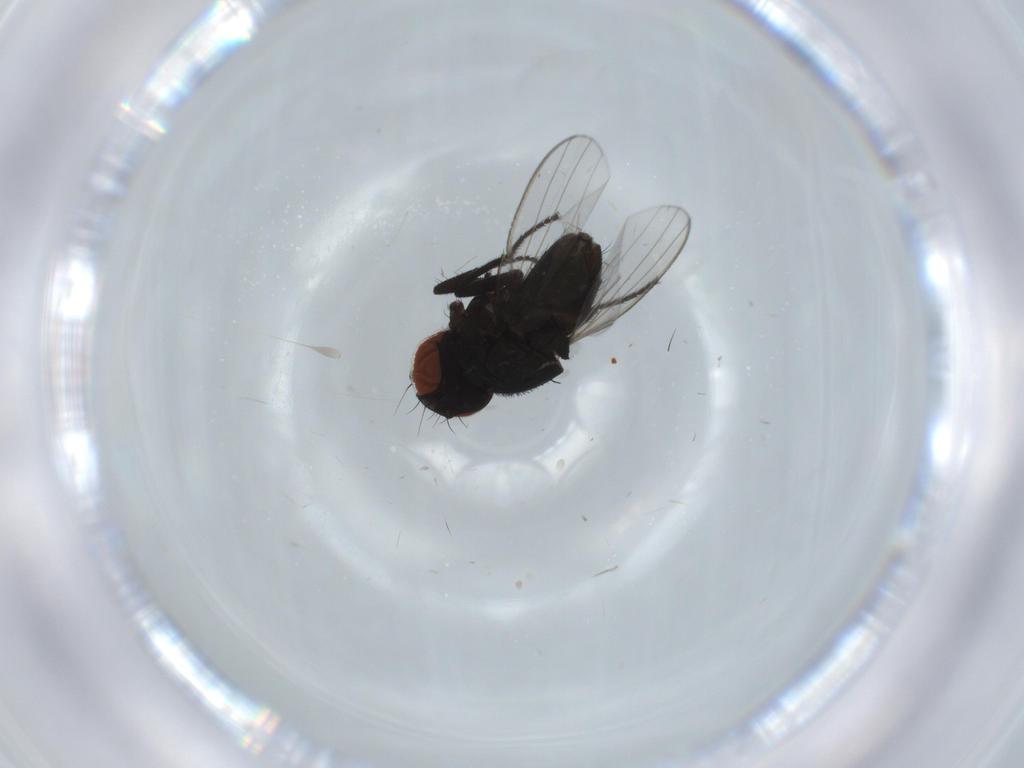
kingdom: Animalia
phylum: Arthropoda
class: Insecta
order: Diptera
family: Milichiidae
